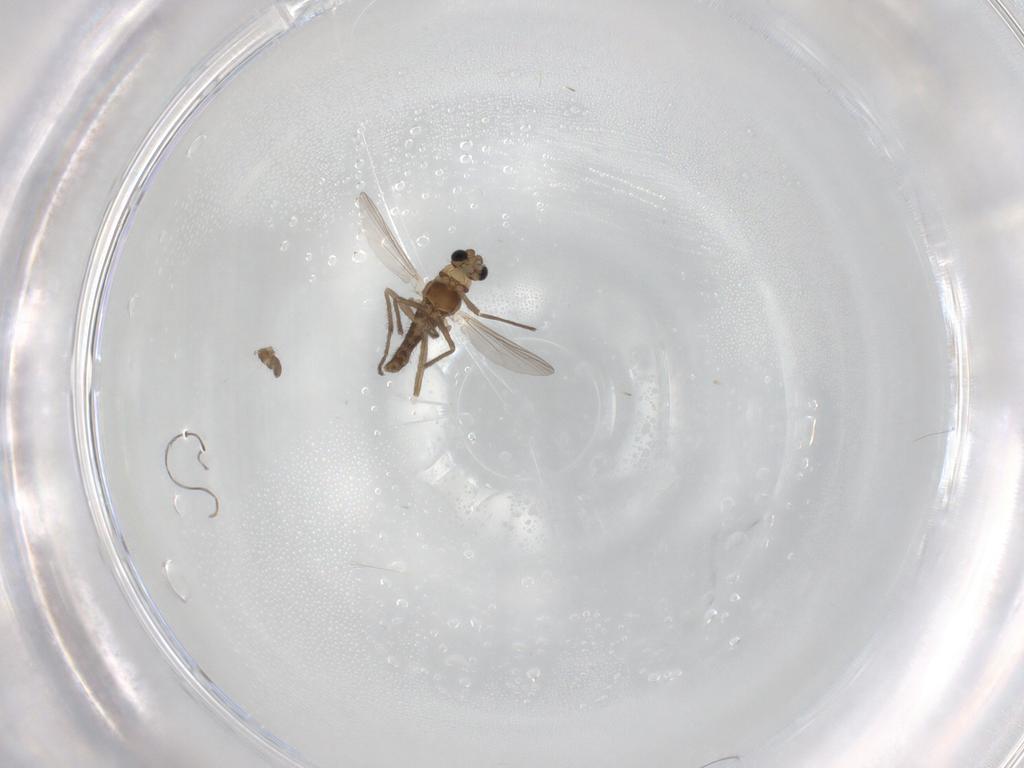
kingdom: Animalia
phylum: Arthropoda
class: Insecta
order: Diptera
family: Chironomidae
